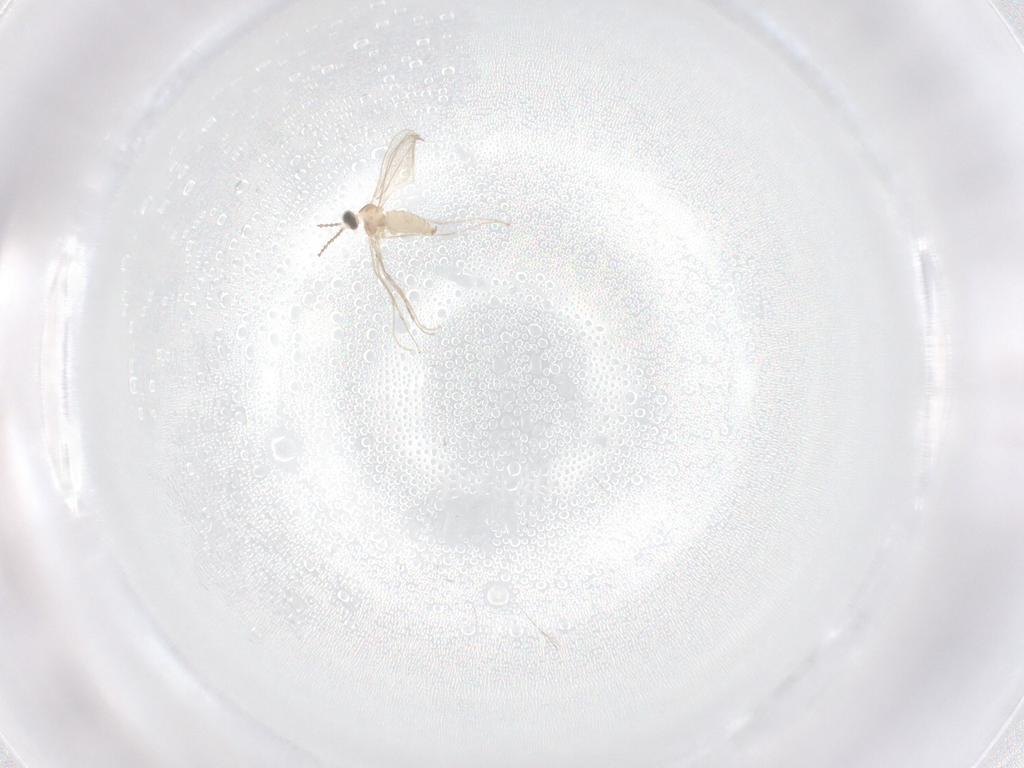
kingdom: Animalia
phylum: Arthropoda
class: Insecta
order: Diptera
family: Cecidomyiidae
